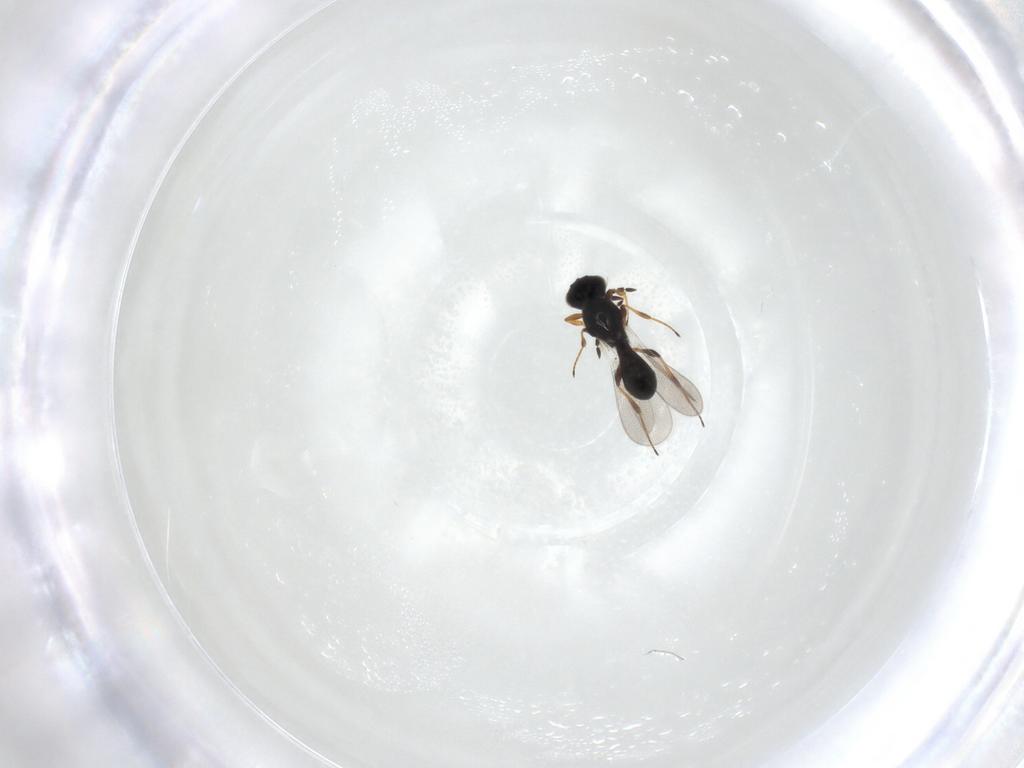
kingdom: Animalia
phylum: Arthropoda
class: Insecta
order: Hymenoptera
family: Platygastridae
